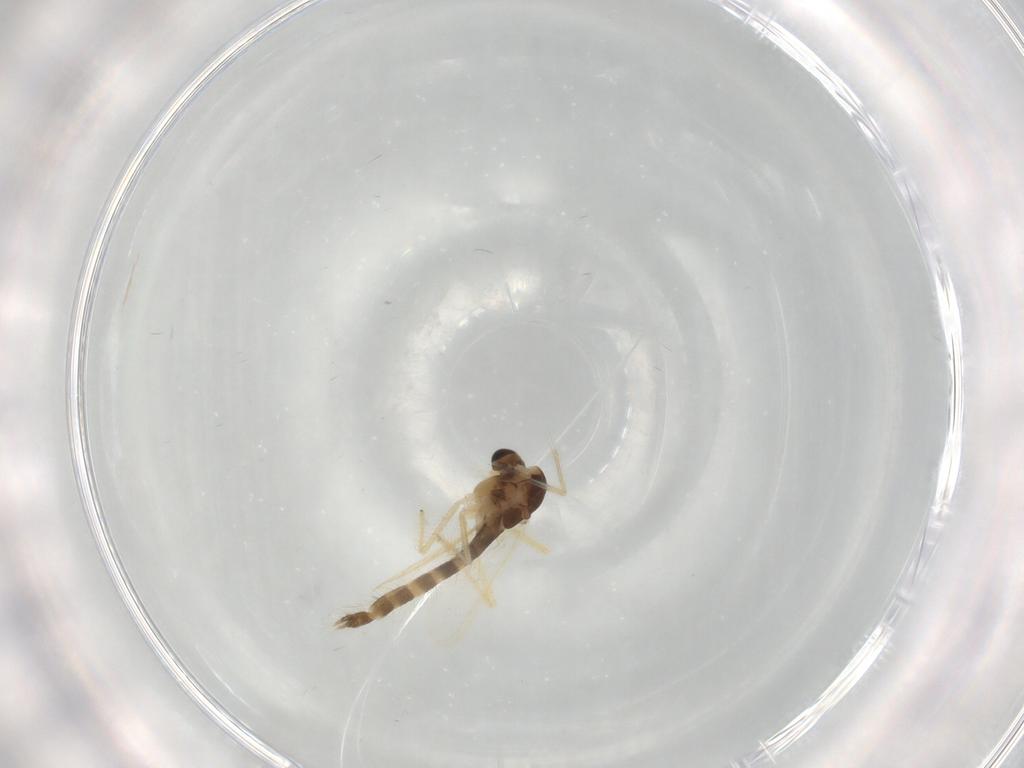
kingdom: Animalia
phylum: Arthropoda
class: Insecta
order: Diptera
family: Chironomidae
